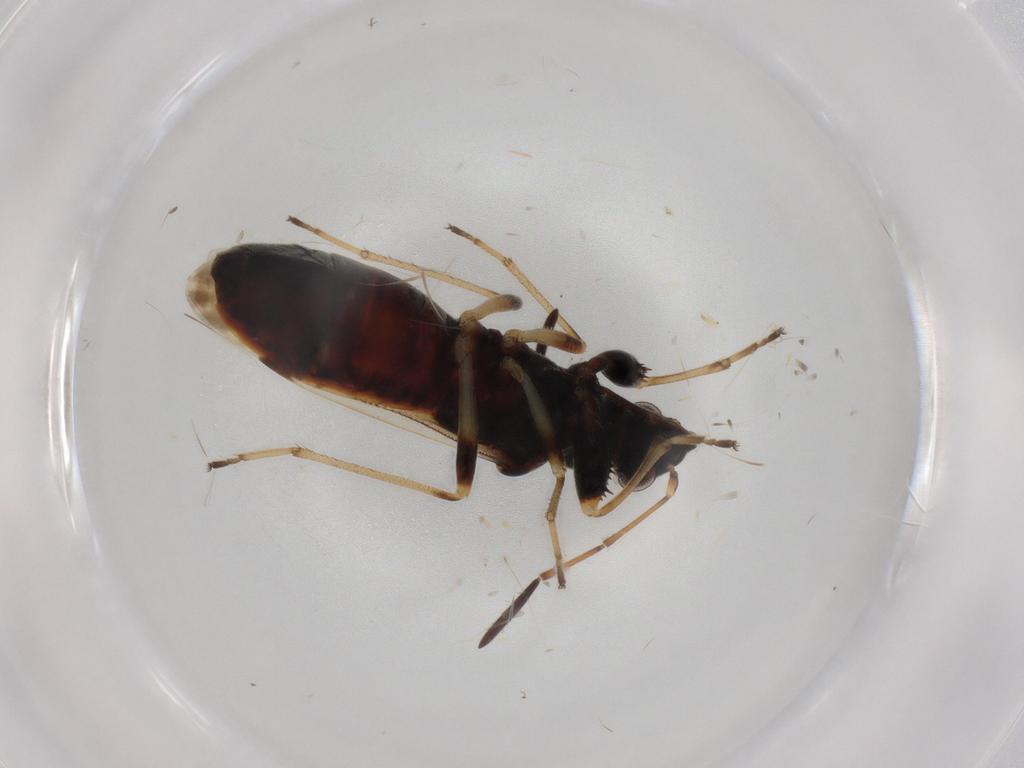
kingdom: Animalia
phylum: Arthropoda
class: Insecta
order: Hemiptera
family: Rhyparochromidae
